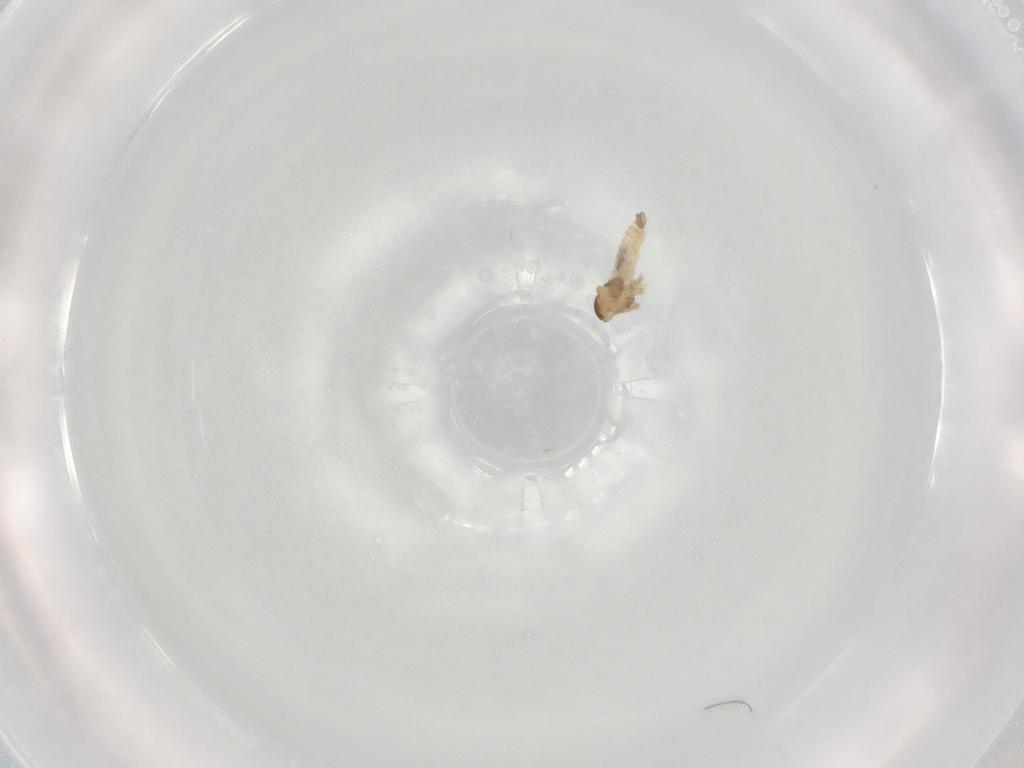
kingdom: Animalia
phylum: Arthropoda
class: Insecta
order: Diptera
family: Cecidomyiidae
